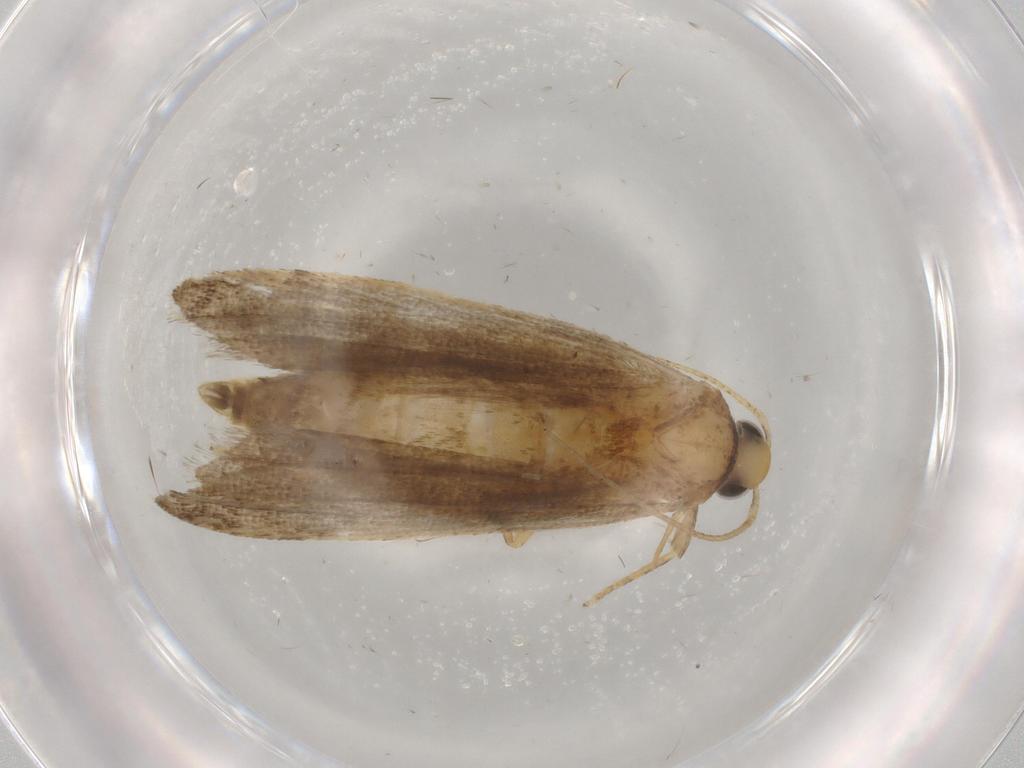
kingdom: Animalia
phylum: Arthropoda
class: Insecta
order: Lepidoptera
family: Autostichidae
